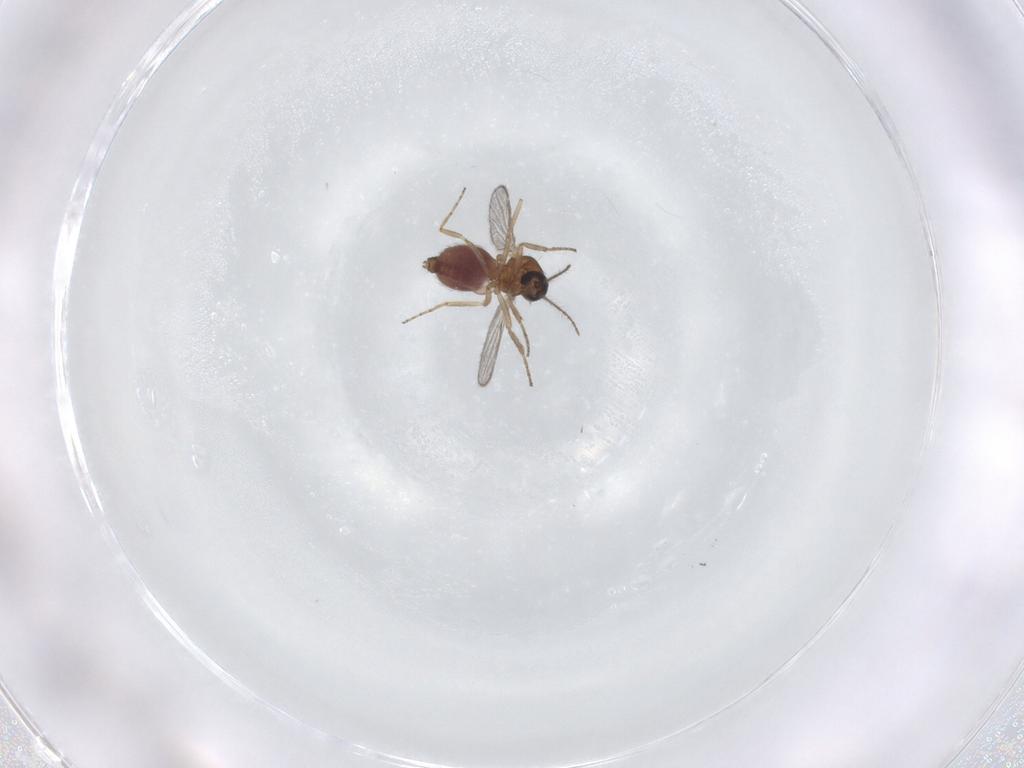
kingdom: Animalia
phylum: Arthropoda
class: Insecta
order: Diptera
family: Ceratopogonidae
